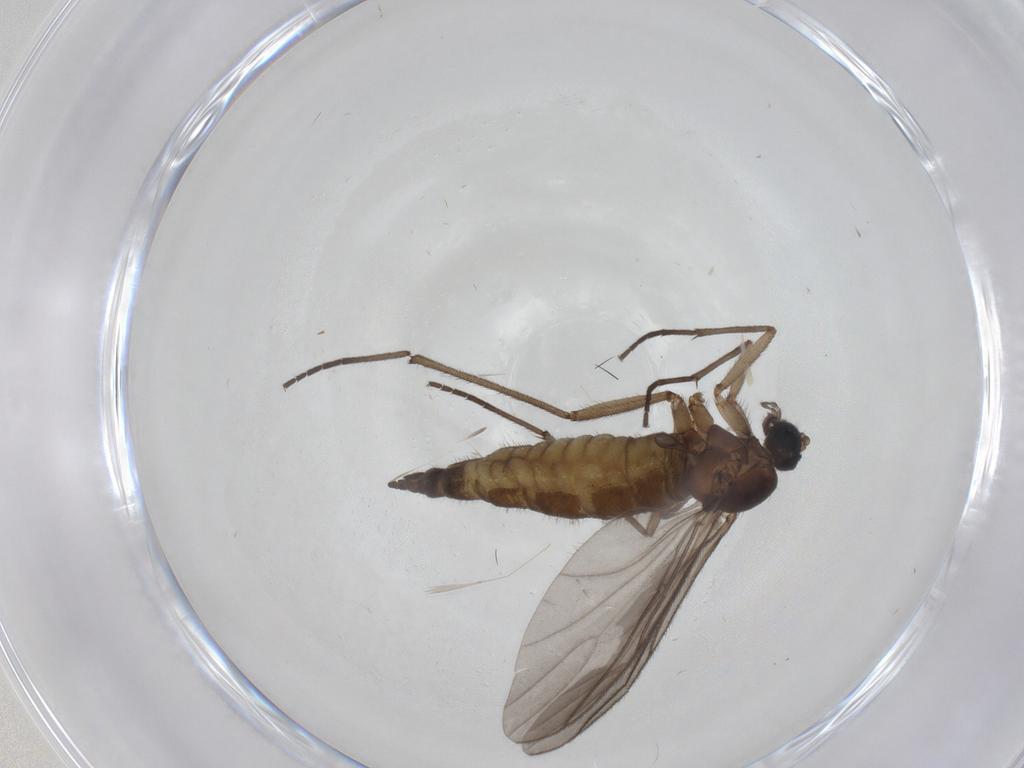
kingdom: Animalia
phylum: Arthropoda
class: Insecta
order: Diptera
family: Sciaridae
